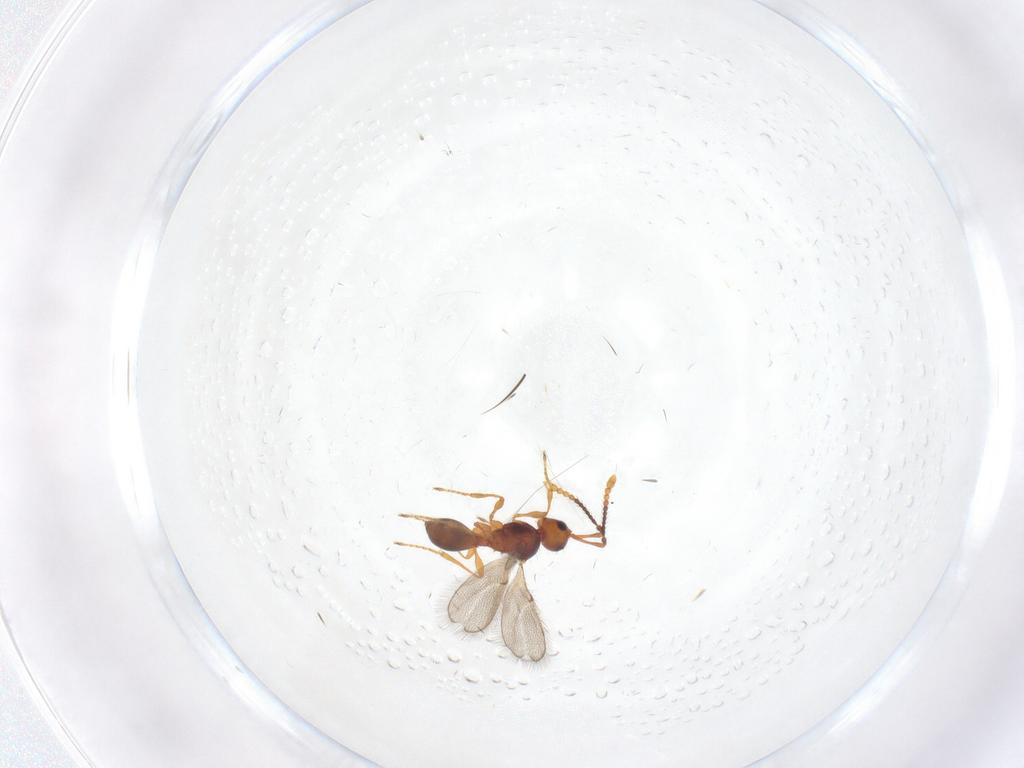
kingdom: Animalia
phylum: Arthropoda
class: Insecta
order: Hymenoptera
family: Diapriidae
